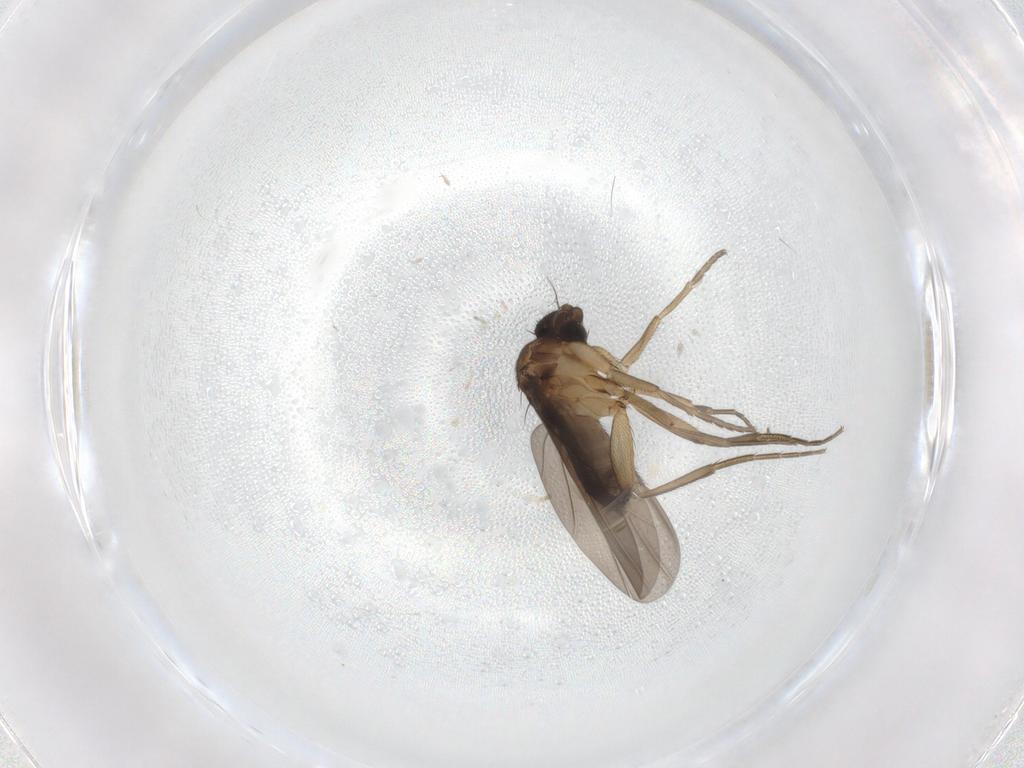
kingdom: Animalia
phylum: Arthropoda
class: Insecta
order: Diptera
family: Phoridae
